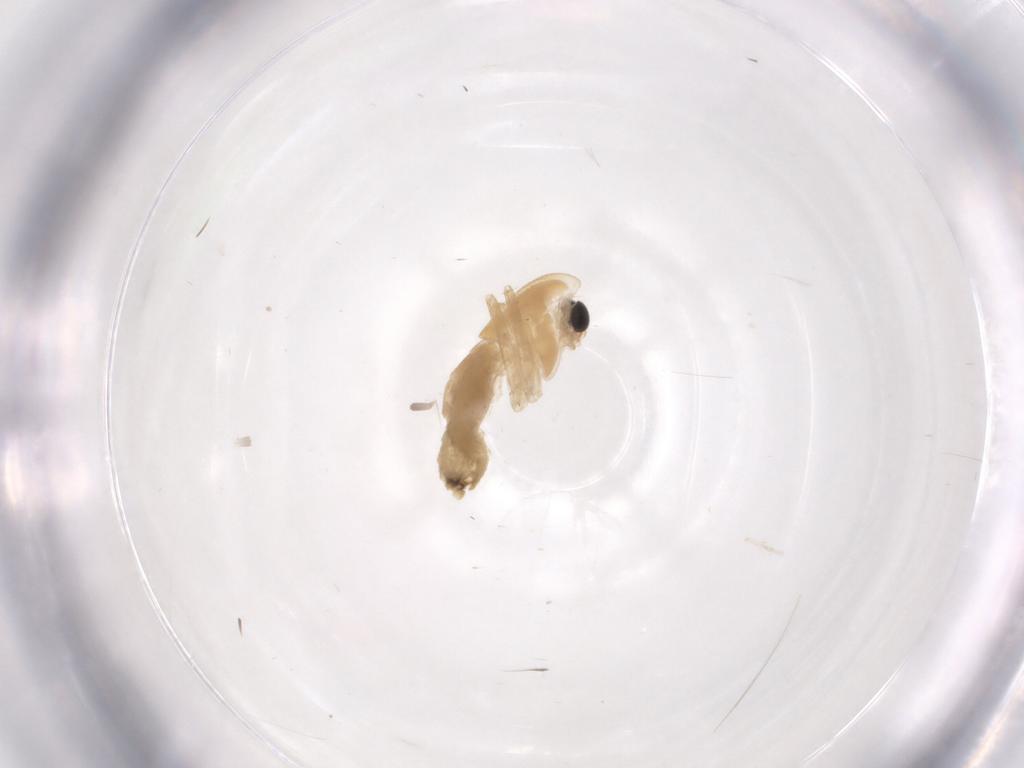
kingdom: Animalia
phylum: Arthropoda
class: Insecta
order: Diptera
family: Chironomidae
